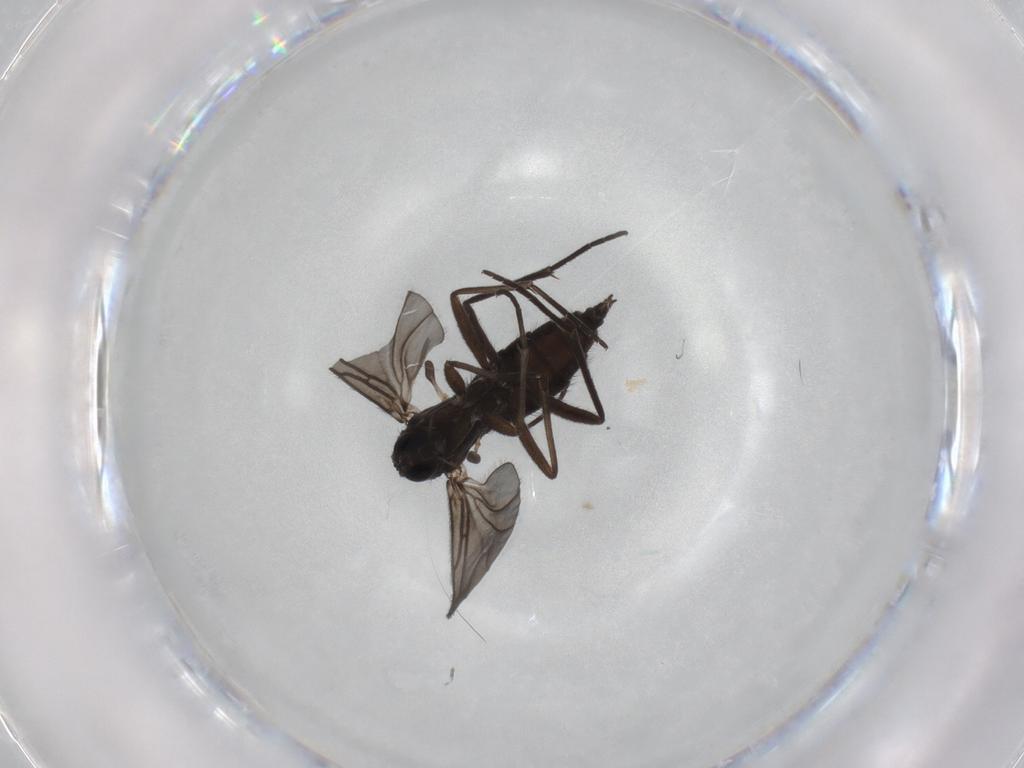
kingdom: Animalia
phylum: Arthropoda
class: Insecta
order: Diptera
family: Sciaridae
